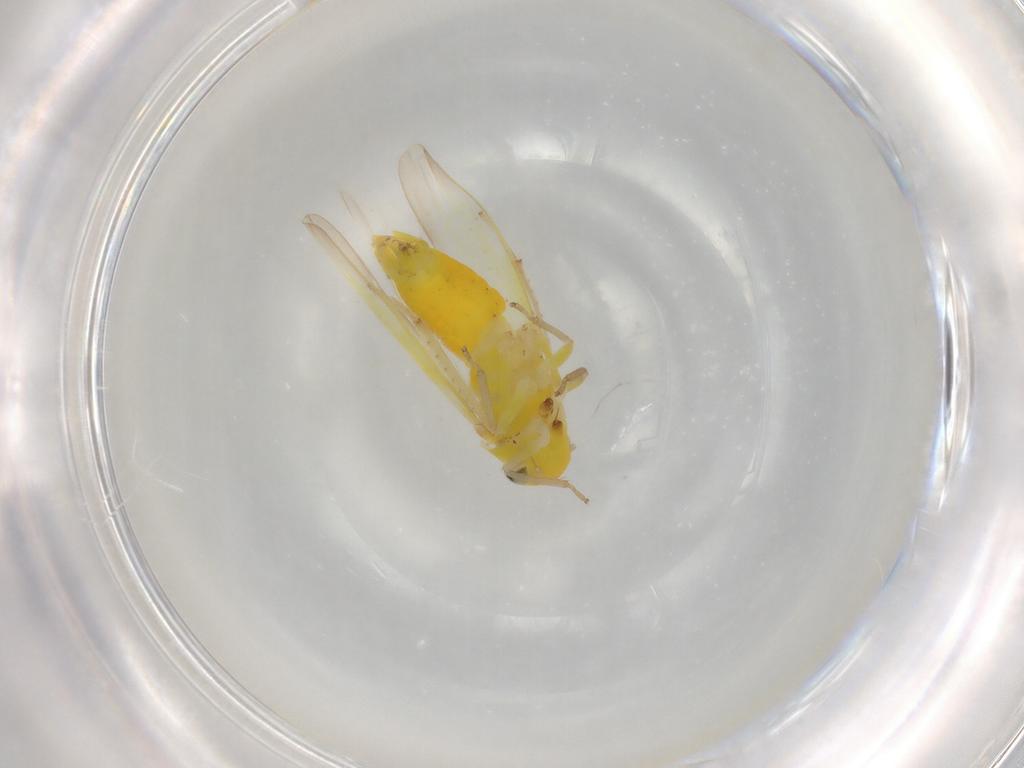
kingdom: Animalia
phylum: Arthropoda
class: Insecta
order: Hemiptera
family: Cicadellidae
